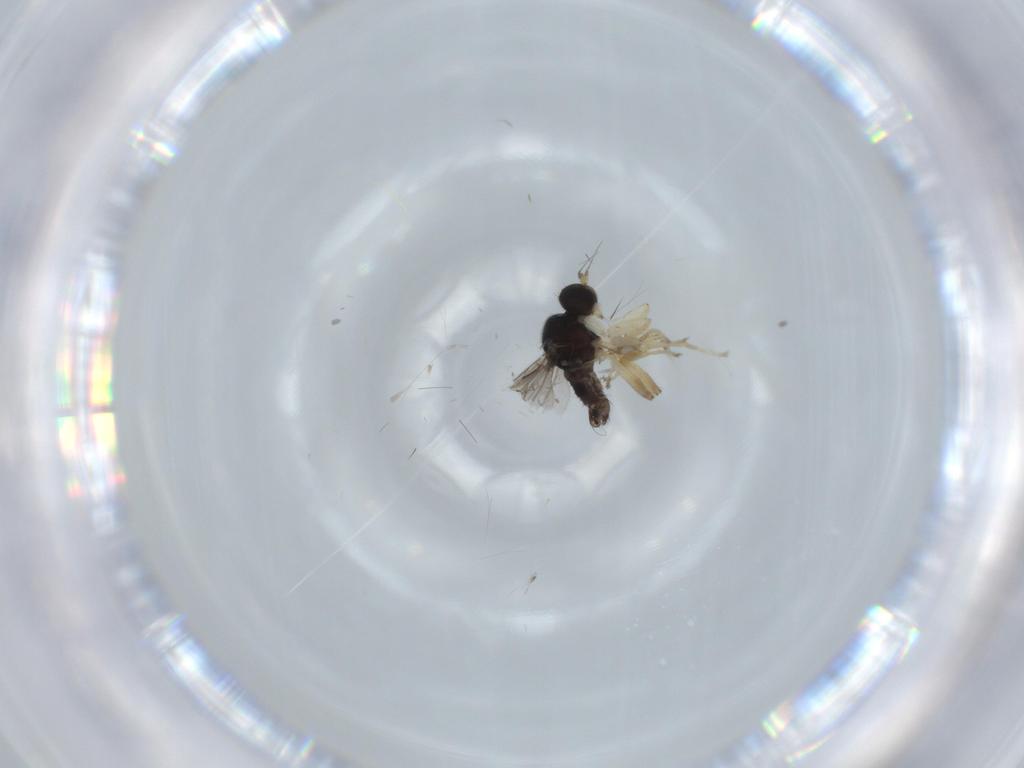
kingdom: Animalia
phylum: Arthropoda
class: Insecta
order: Diptera
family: Hybotidae
